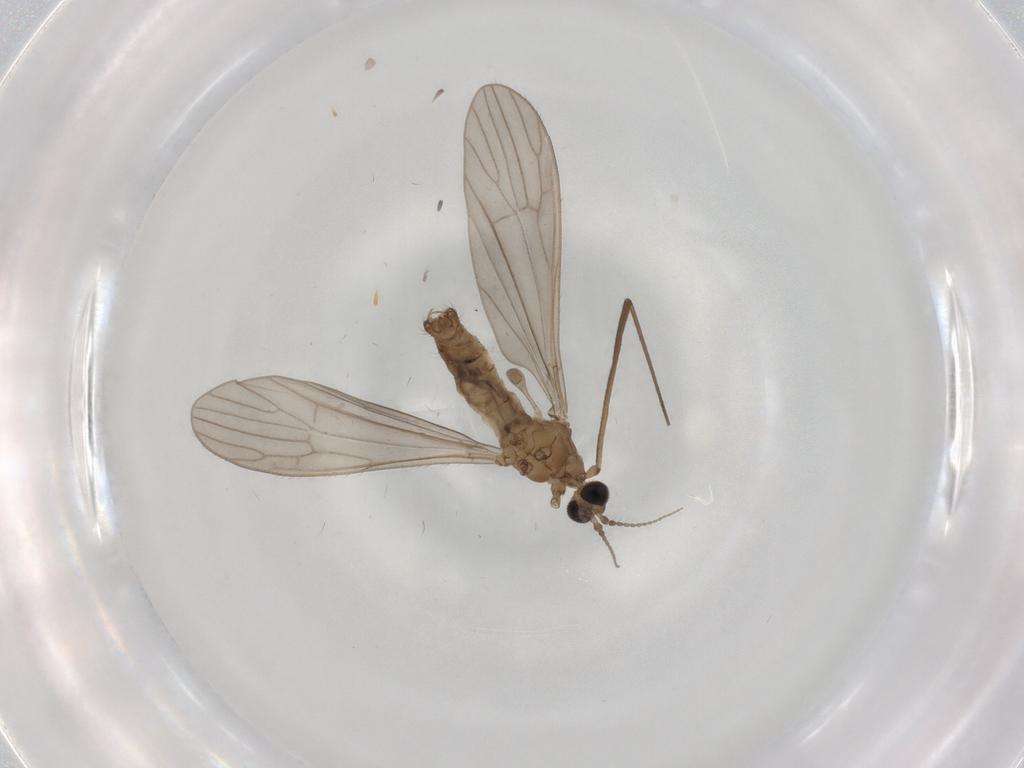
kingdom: Animalia
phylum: Arthropoda
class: Insecta
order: Diptera
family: Limoniidae
